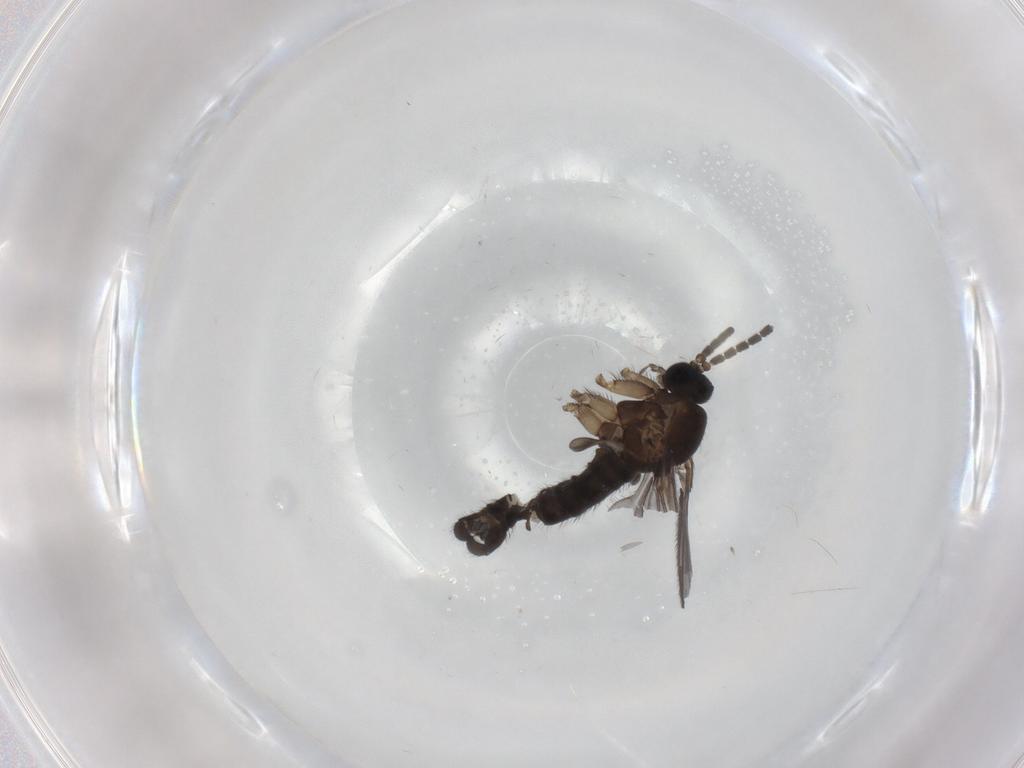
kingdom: Animalia
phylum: Arthropoda
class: Insecta
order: Diptera
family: Sciaridae
